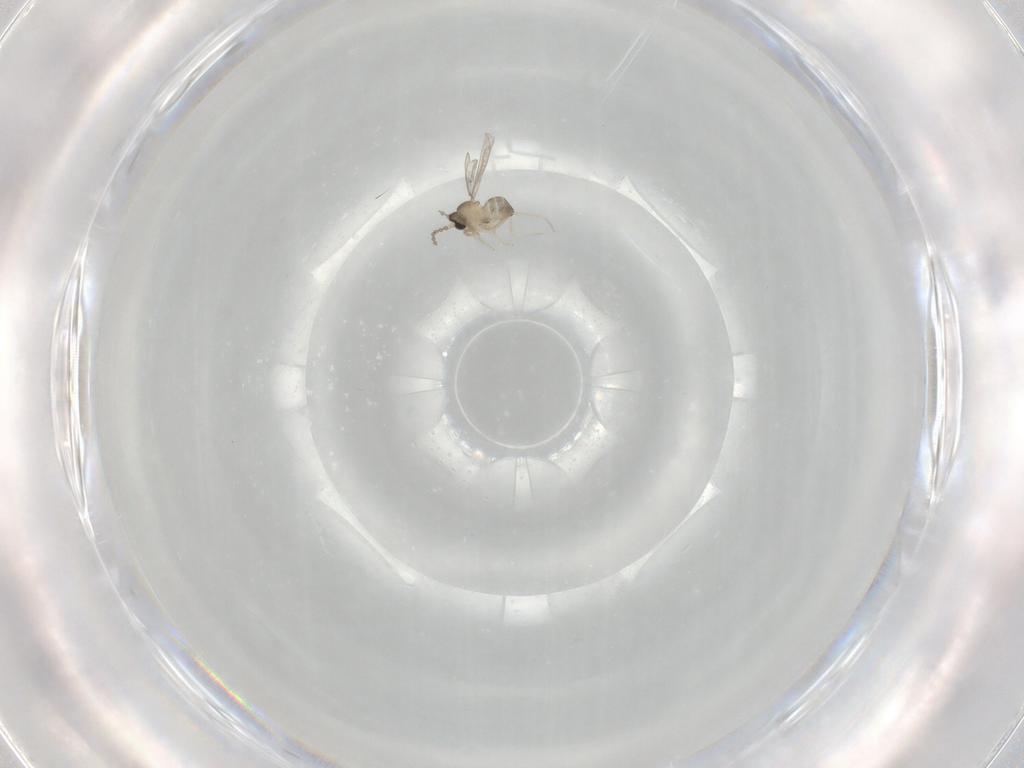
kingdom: Animalia
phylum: Arthropoda
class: Insecta
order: Diptera
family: Cecidomyiidae
